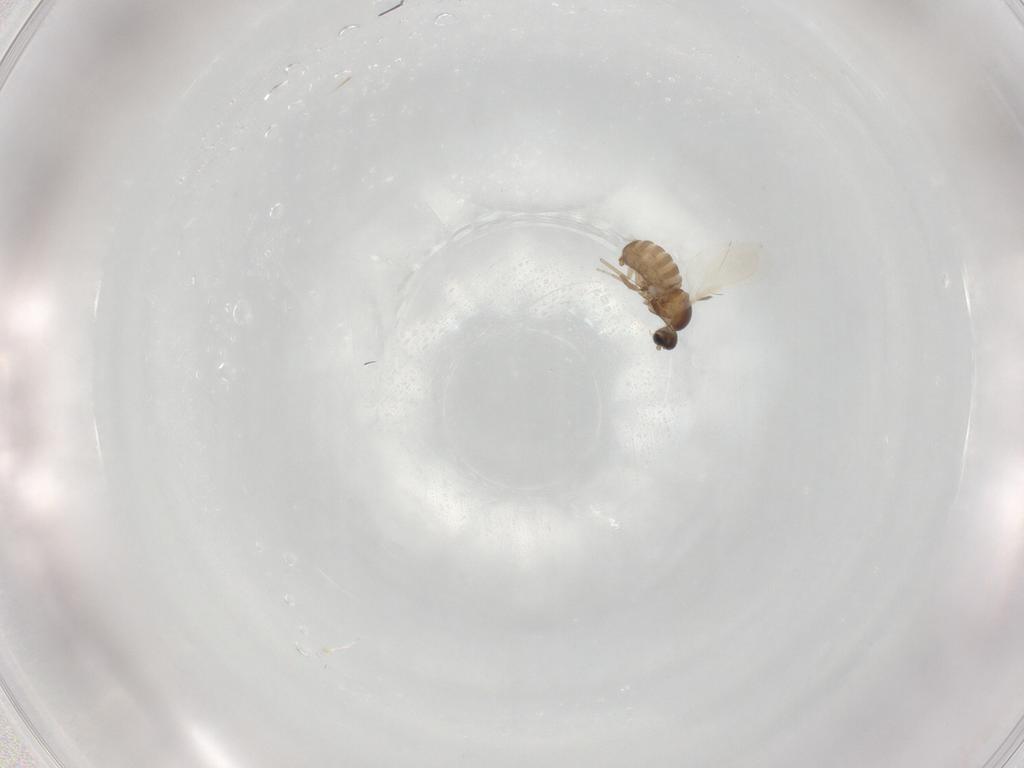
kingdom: Animalia
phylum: Arthropoda
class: Insecta
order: Diptera
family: Cecidomyiidae
